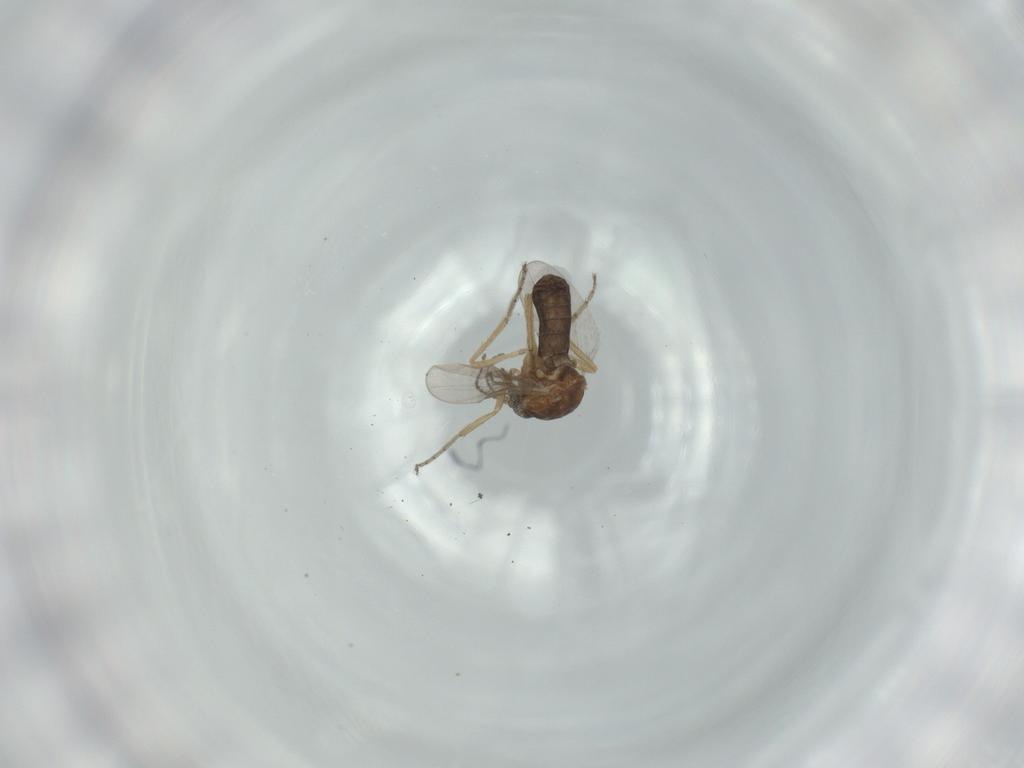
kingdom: Animalia
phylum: Arthropoda
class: Insecta
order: Diptera
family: Ceratopogonidae
